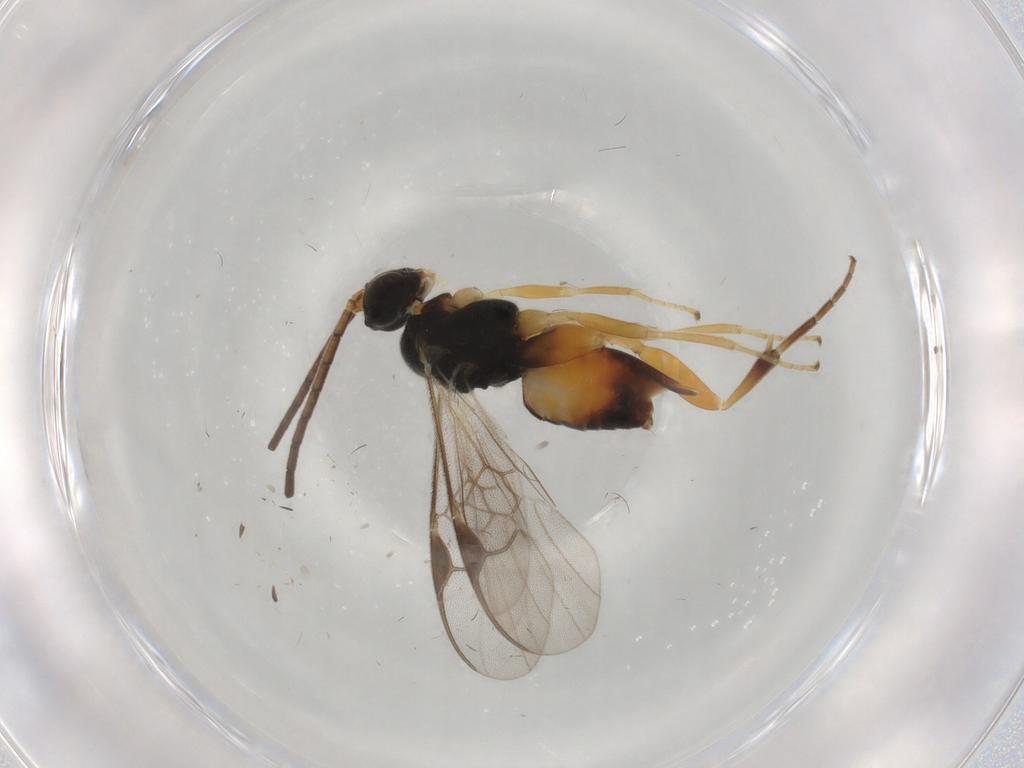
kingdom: Animalia
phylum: Arthropoda
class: Insecta
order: Hymenoptera
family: Braconidae
